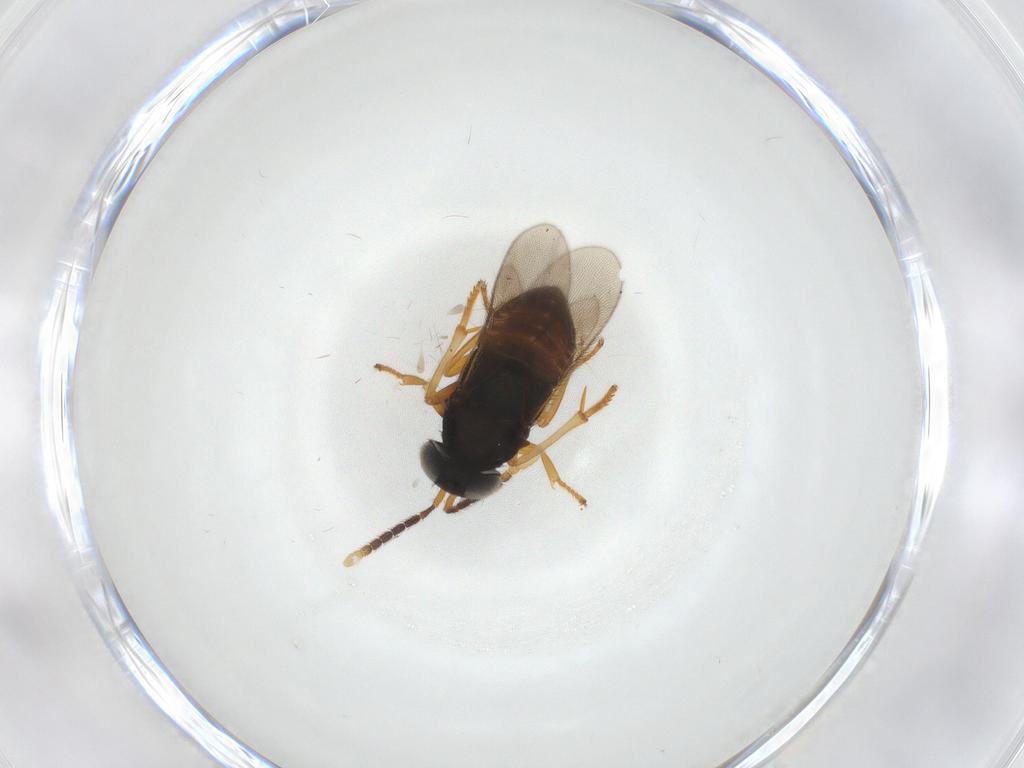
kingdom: Animalia
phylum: Arthropoda
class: Insecta
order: Hymenoptera
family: Encyrtidae
